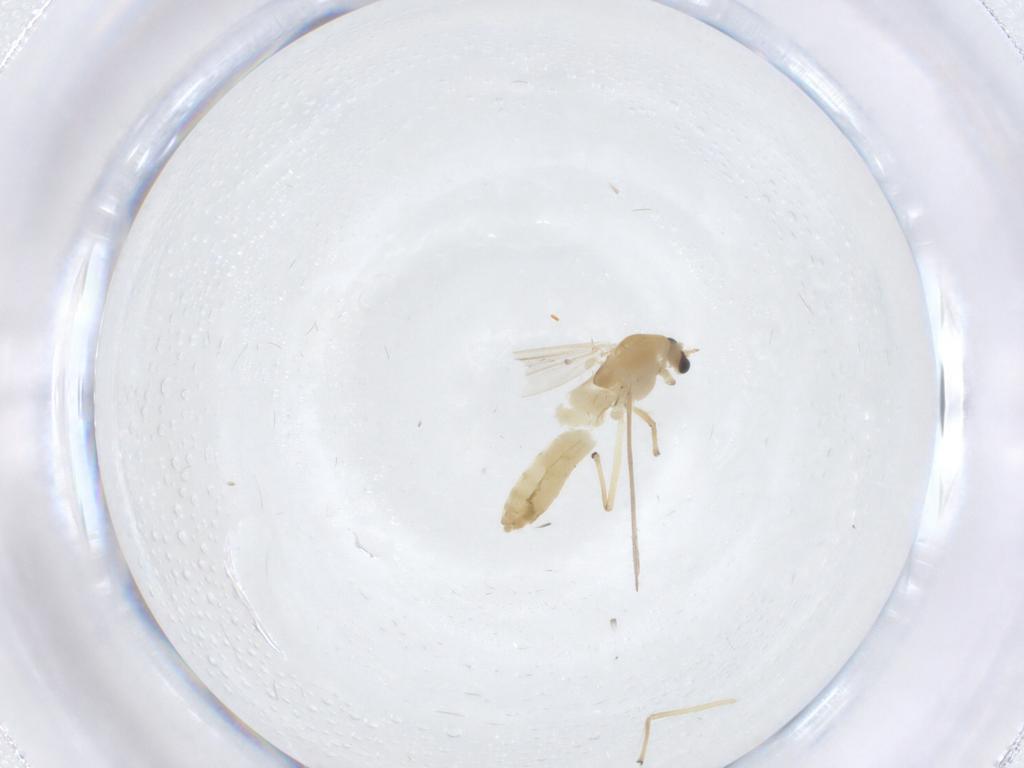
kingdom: Animalia
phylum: Arthropoda
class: Insecta
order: Diptera
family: Chironomidae
